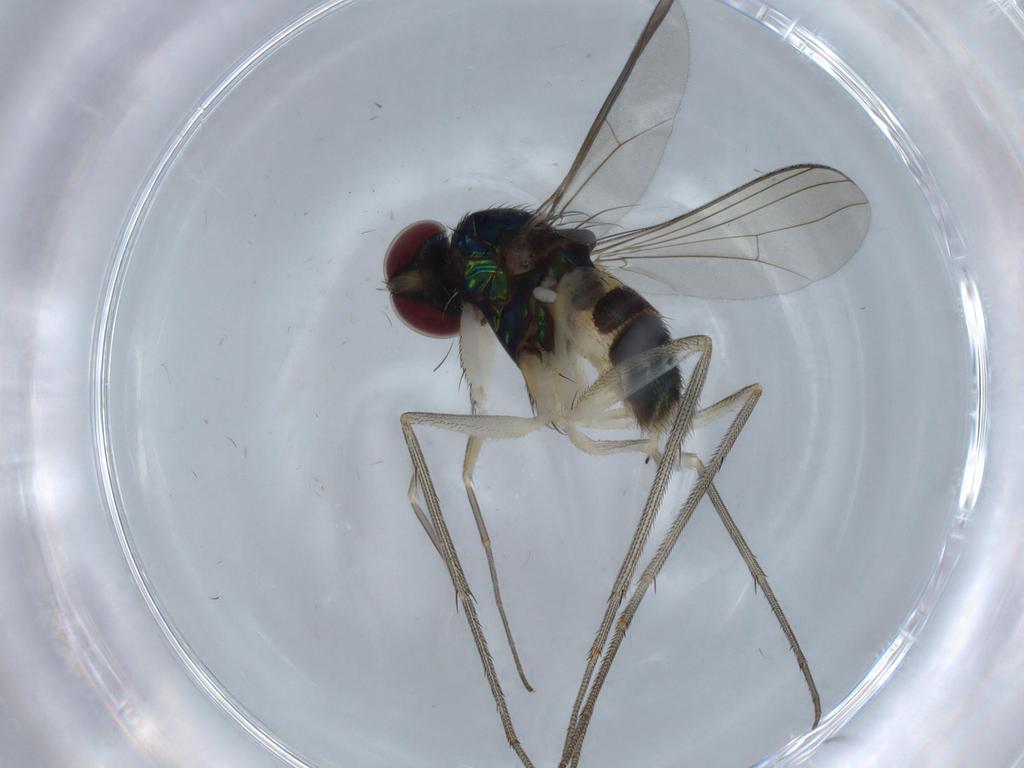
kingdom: Animalia
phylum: Arthropoda
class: Insecta
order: Diptera
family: Dolichopodidae
